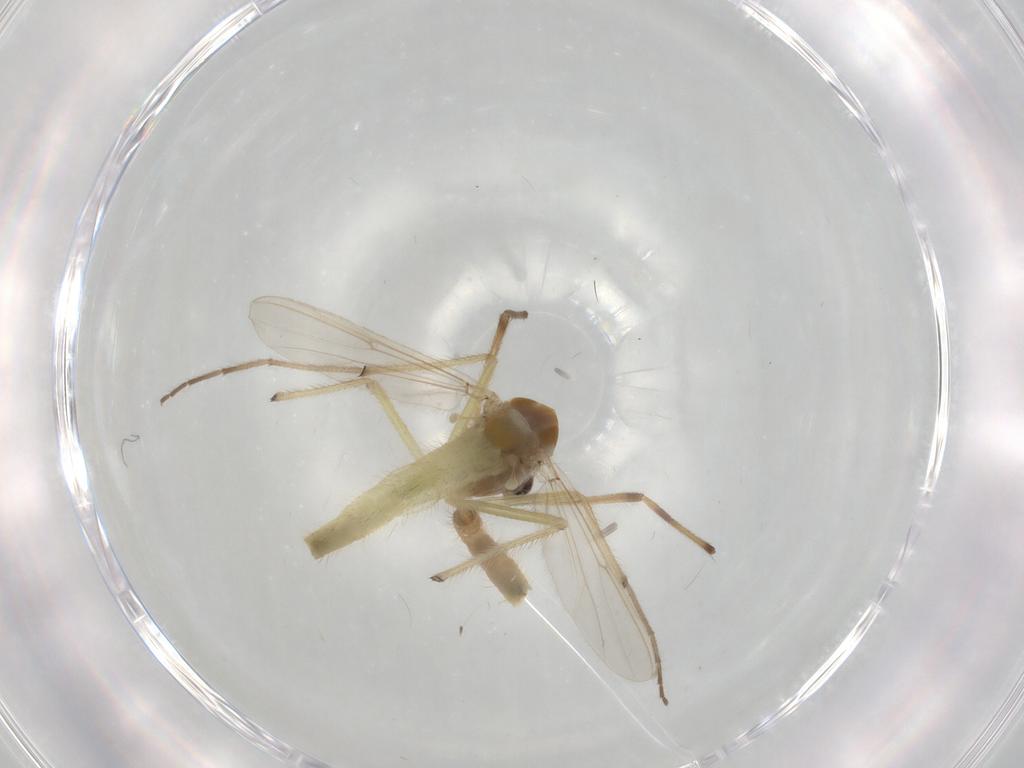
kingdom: Animalia
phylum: Arthropoda
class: Insecta
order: Diptera
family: Chironomidae
